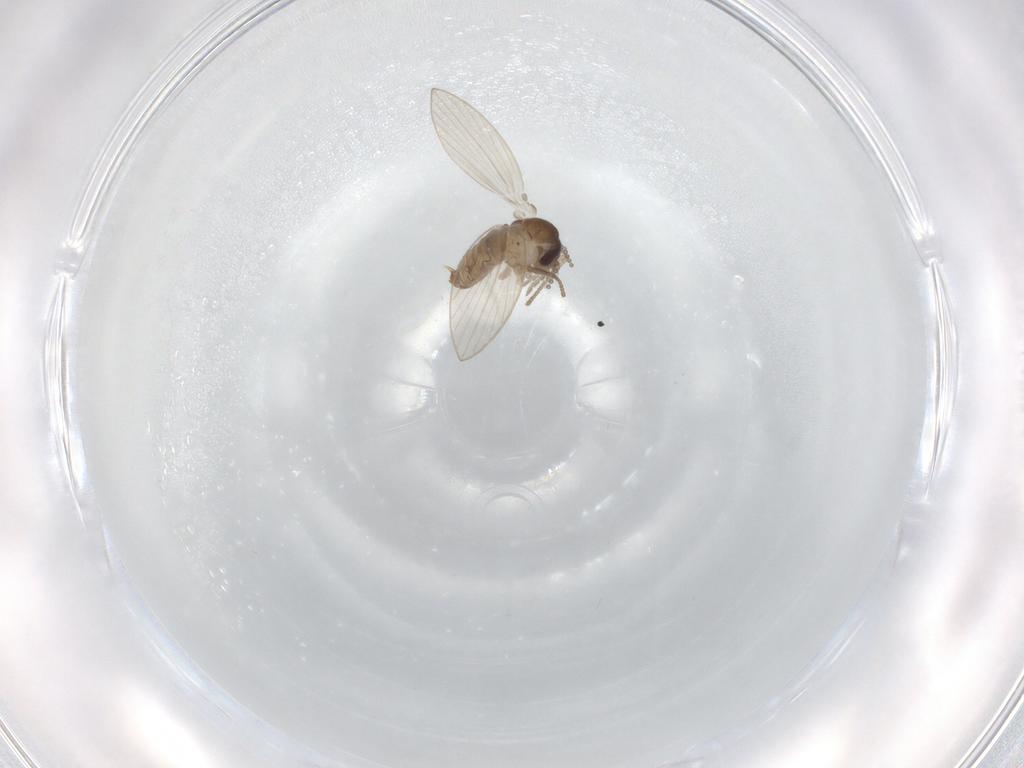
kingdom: Animalia
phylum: Arthropoda
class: Insecta
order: Diptera
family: Psychodidae
